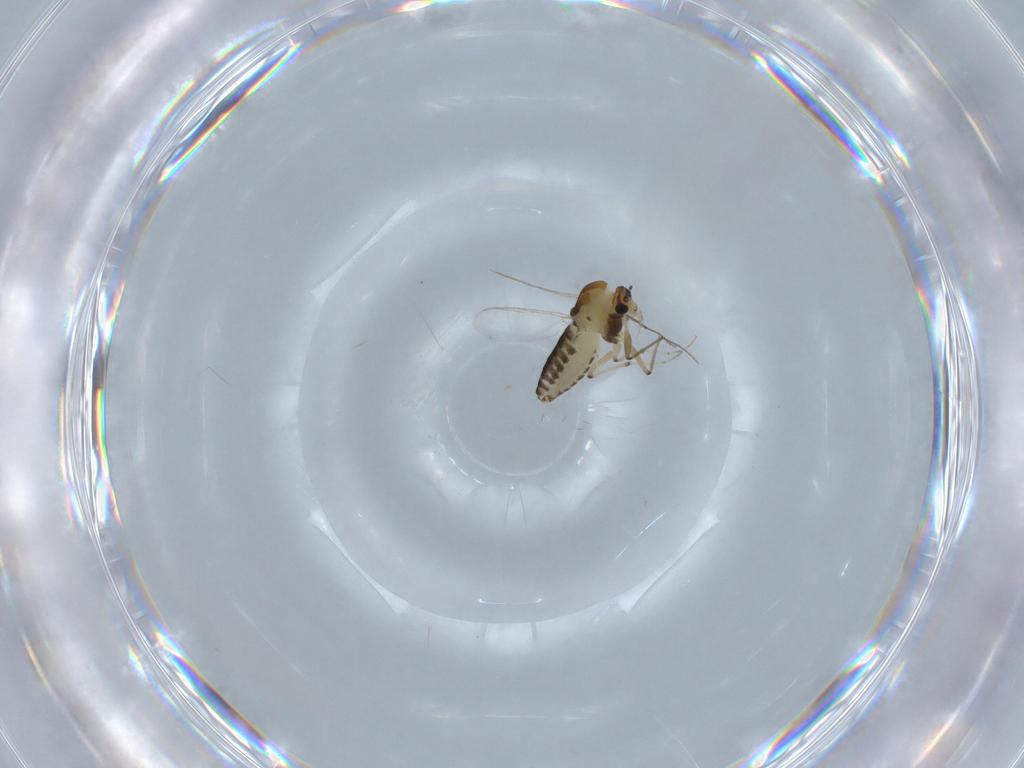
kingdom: Animalia
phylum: Arthropoda
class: Insecta
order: Diptera
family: Chironomidae
